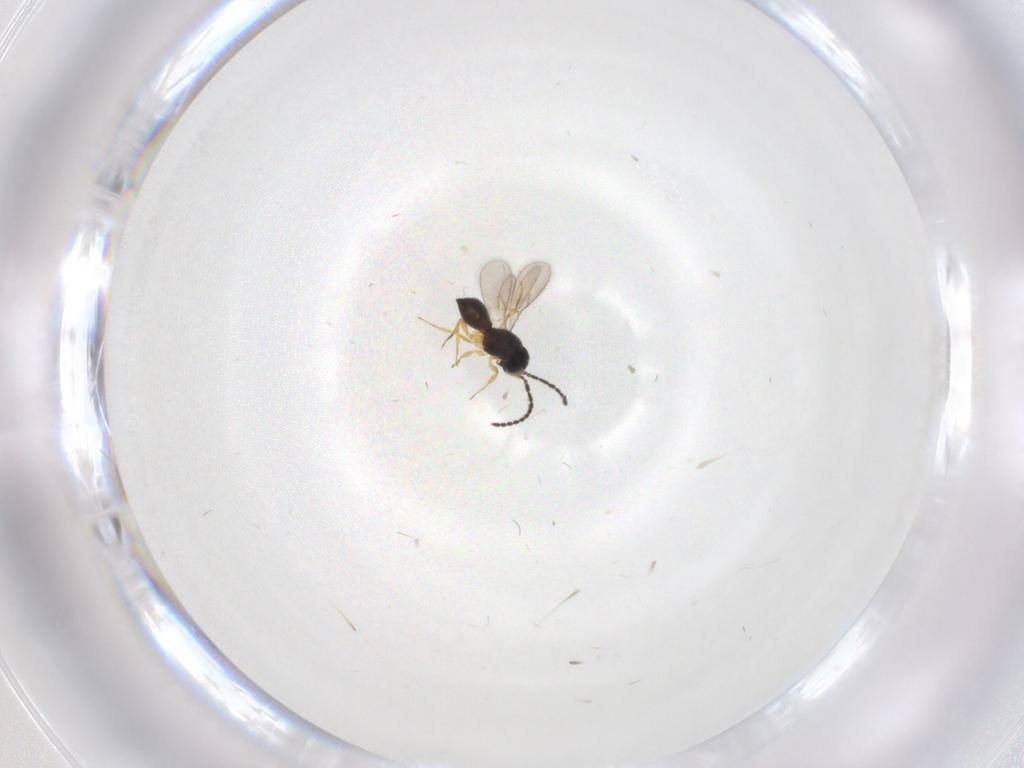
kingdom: Animalia
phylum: Arthropoda
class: Insecta
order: Hymenoptera
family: Scelionidae
